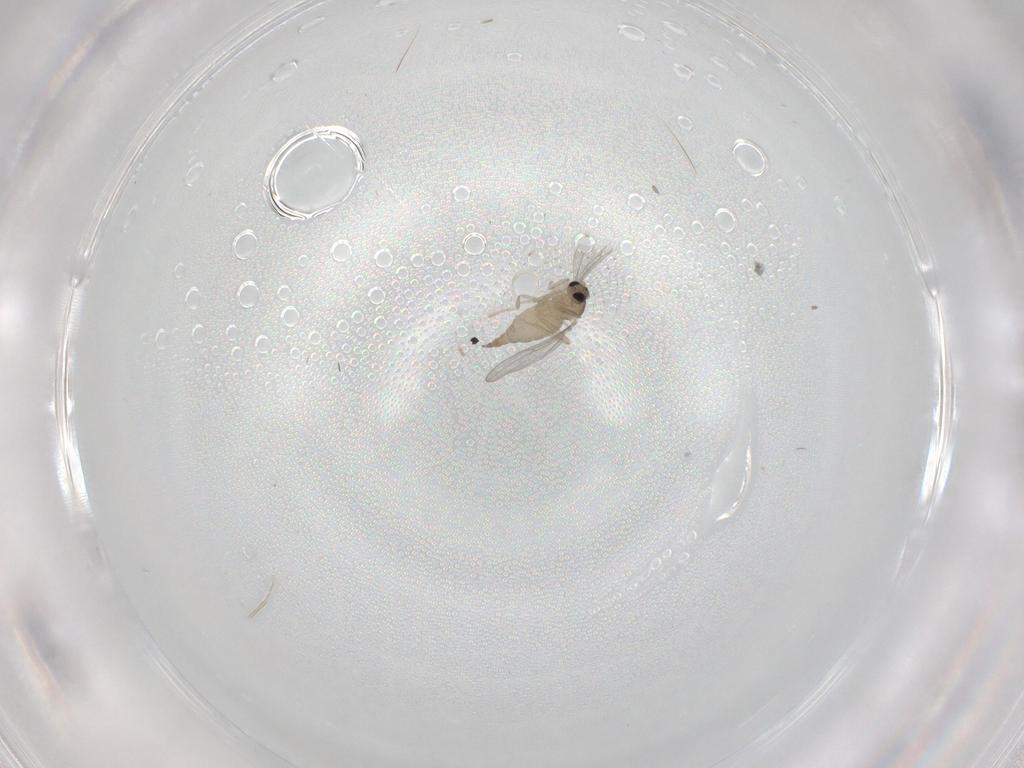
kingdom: Animalia
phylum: Arthropoda
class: Insecta
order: Diptera
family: Cecidomyiidae
